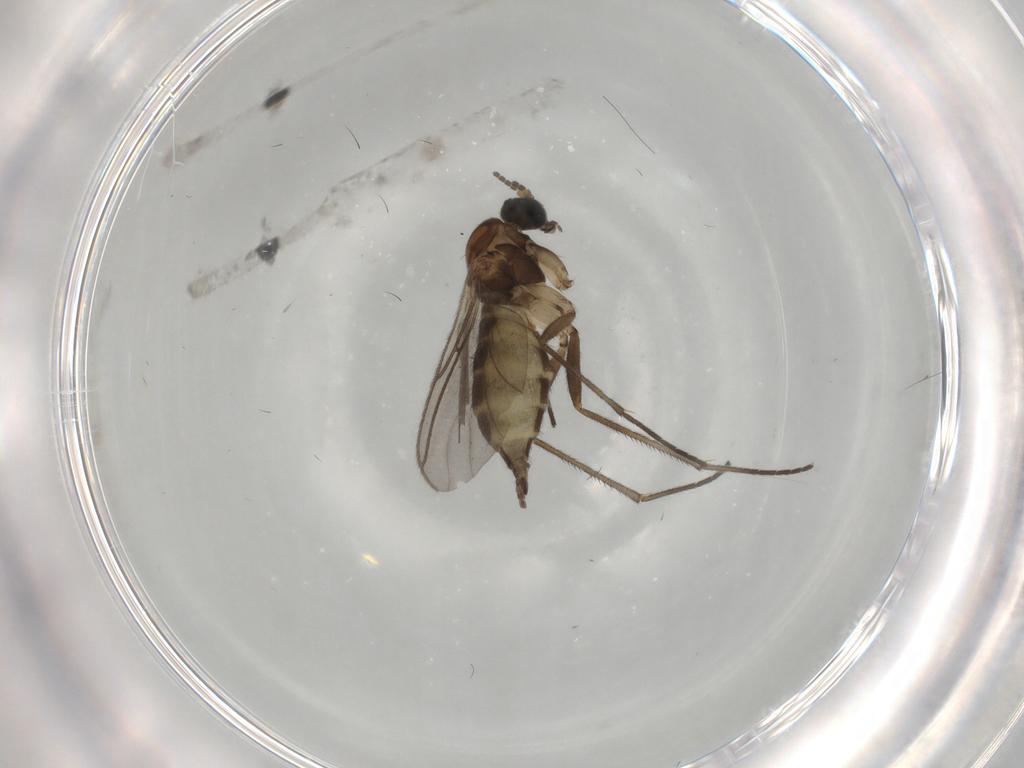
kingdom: Animalia
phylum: Arthropoda
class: Insecta
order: Diptera
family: Sciaridae
